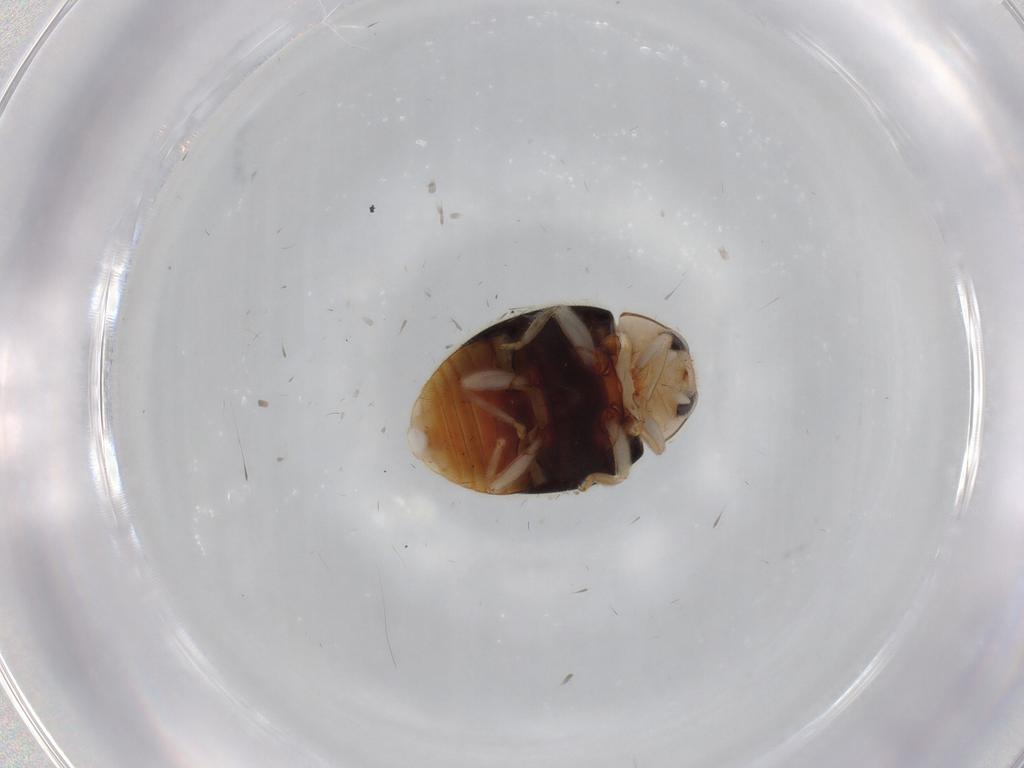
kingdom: Animalia
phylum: Arthropoda
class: Insecta
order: Coleoptera
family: Coccinellidae
